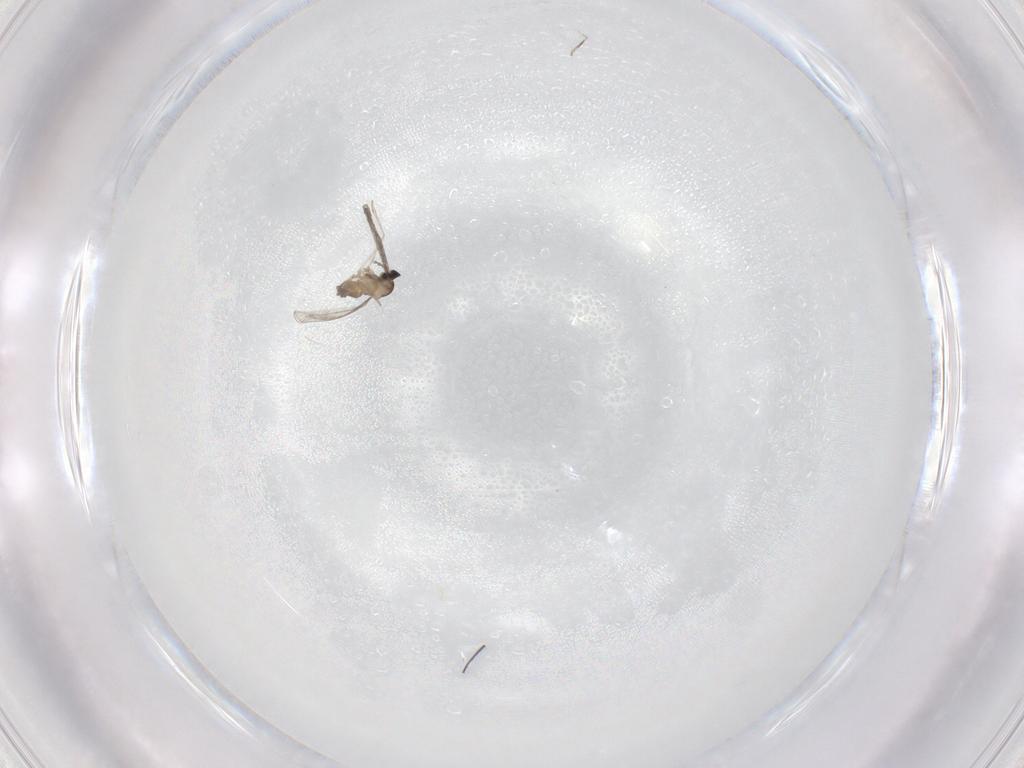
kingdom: Animalia
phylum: Arthropoda
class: Insecta
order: Diptera
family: Cecidomyiidae
